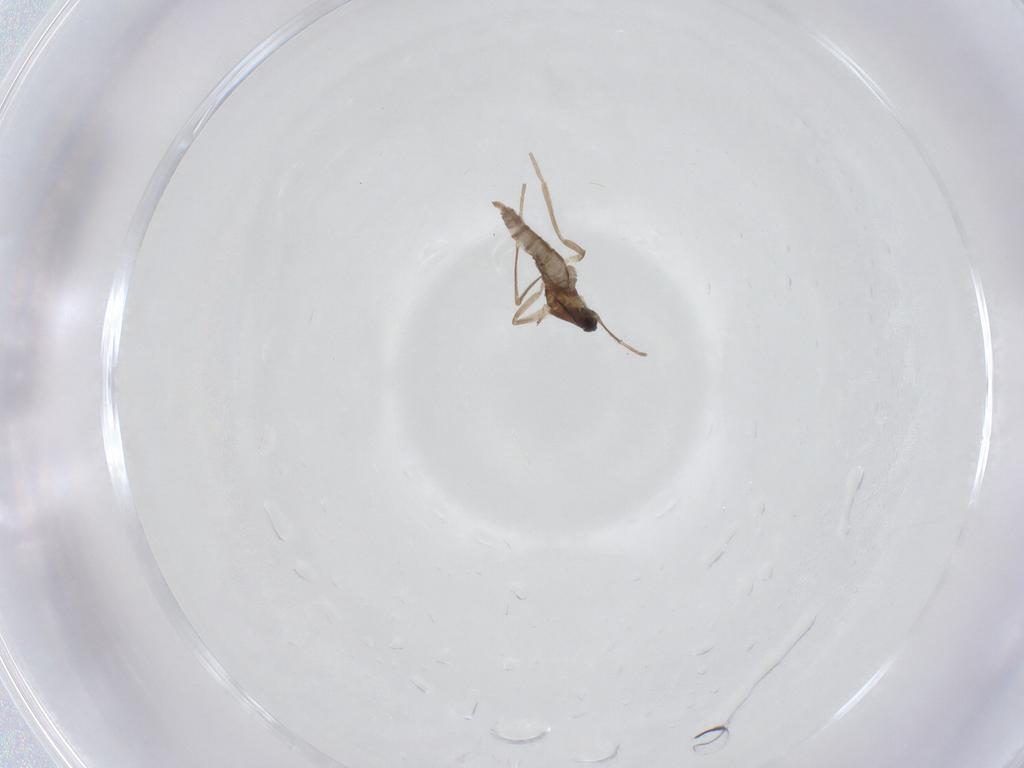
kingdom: Animalia
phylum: Arthropoda
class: Insecta
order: Diptera
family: Cecidomyiidae
